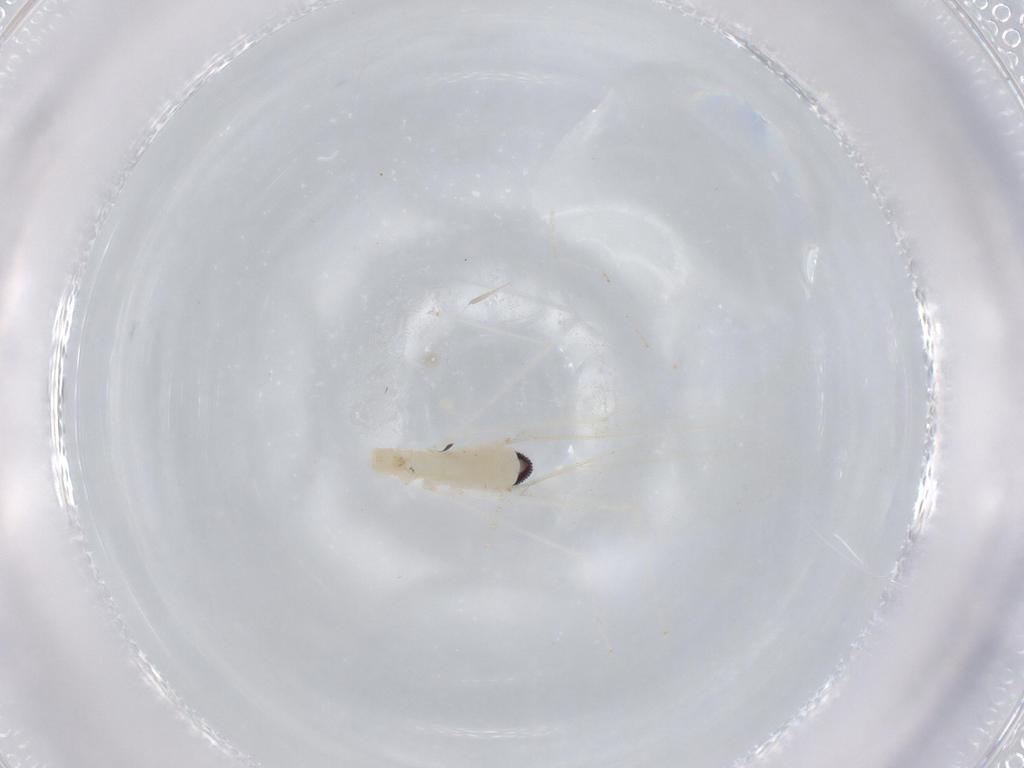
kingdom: Animalia
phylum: Arthropoda
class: Insecta
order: Diptera
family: Cecidomyiidae
